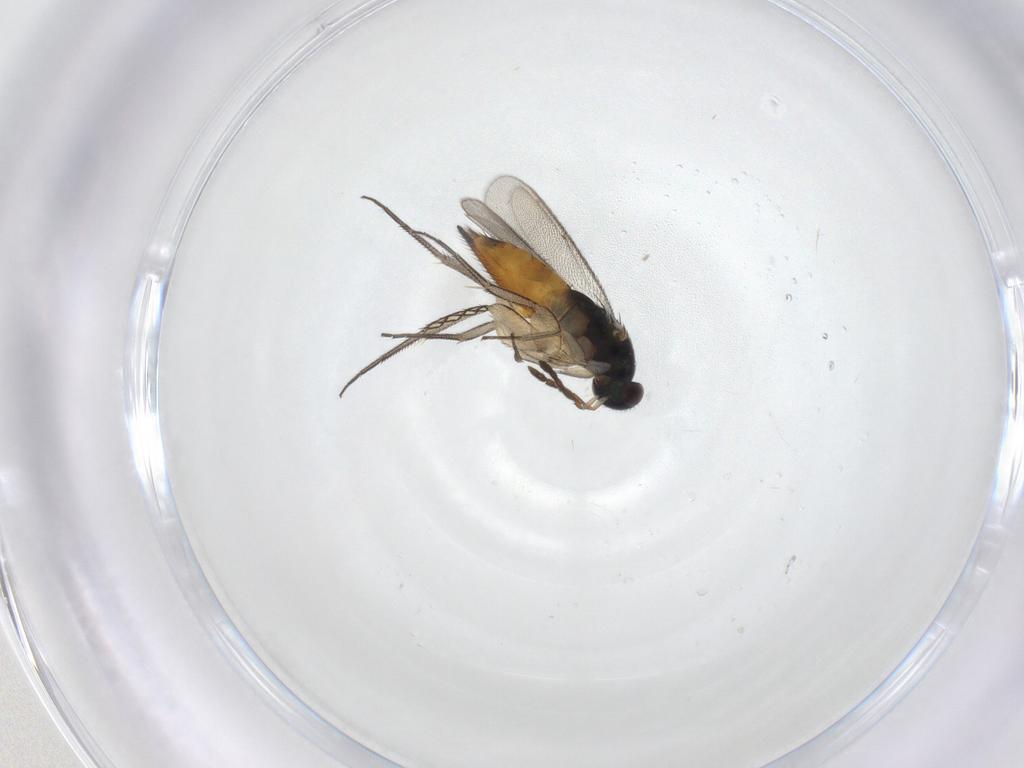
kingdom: Animalia
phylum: Arthropoda
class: Insecta
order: Hymenoptera
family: Eulophidae
